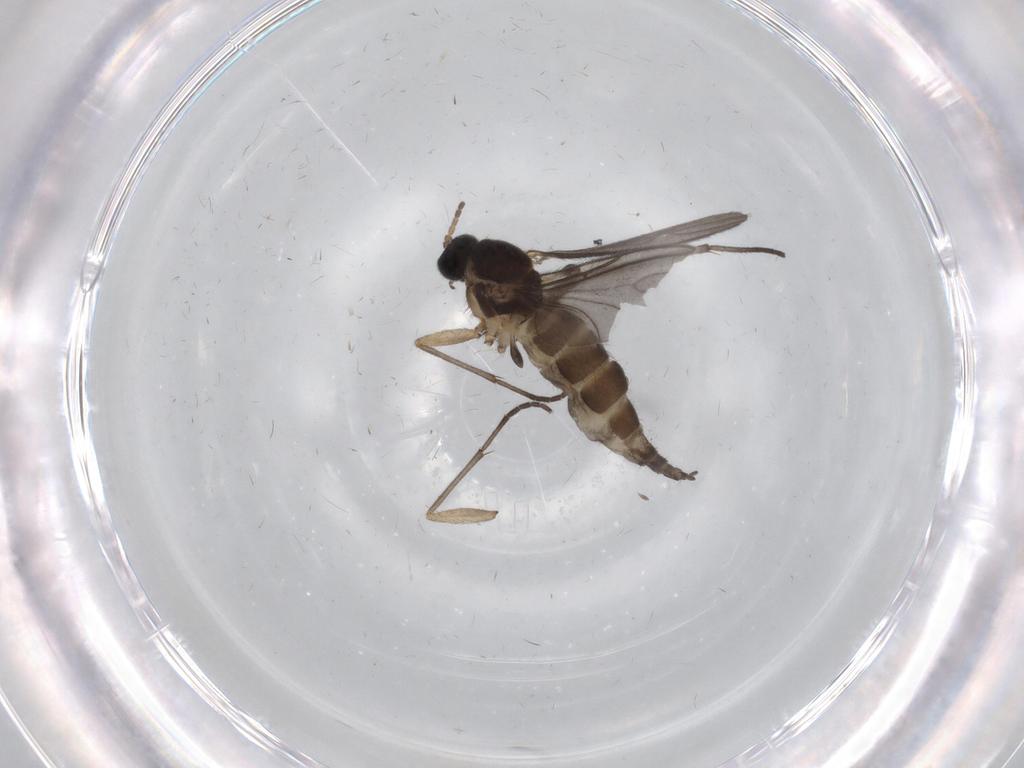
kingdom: Animalia
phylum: Arthropoda
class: Insecta
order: Diptera
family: Sciaridae
